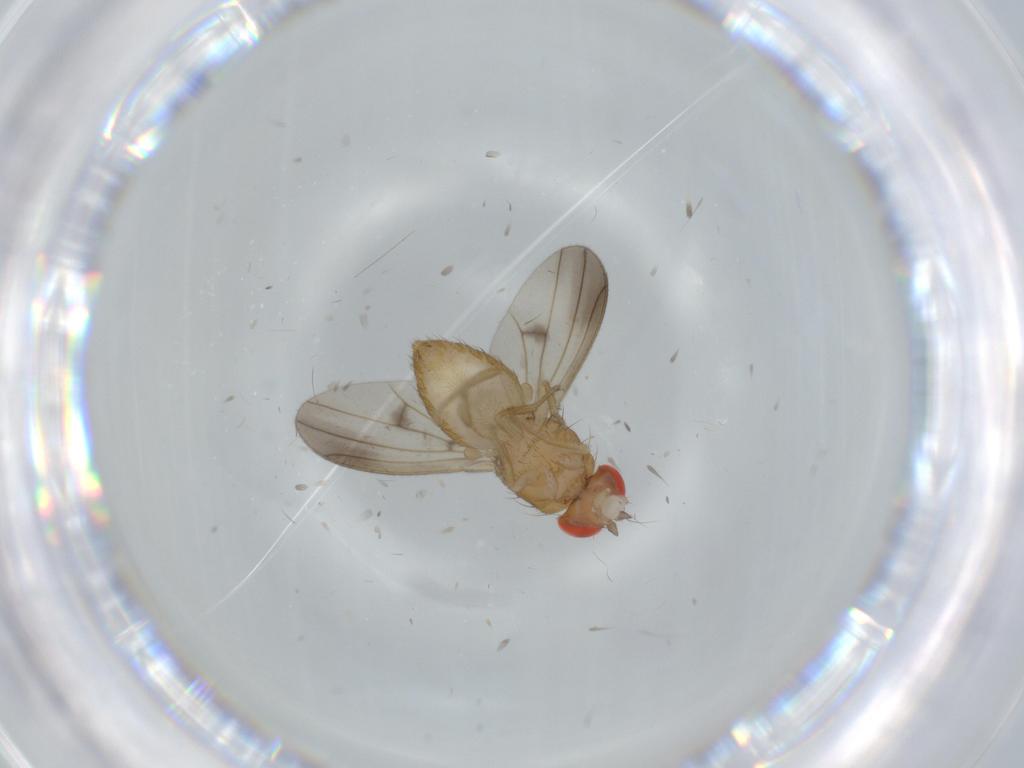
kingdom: Animalia
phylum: Arthropoda
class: Insecta
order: Diptera
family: Drosophilidae
